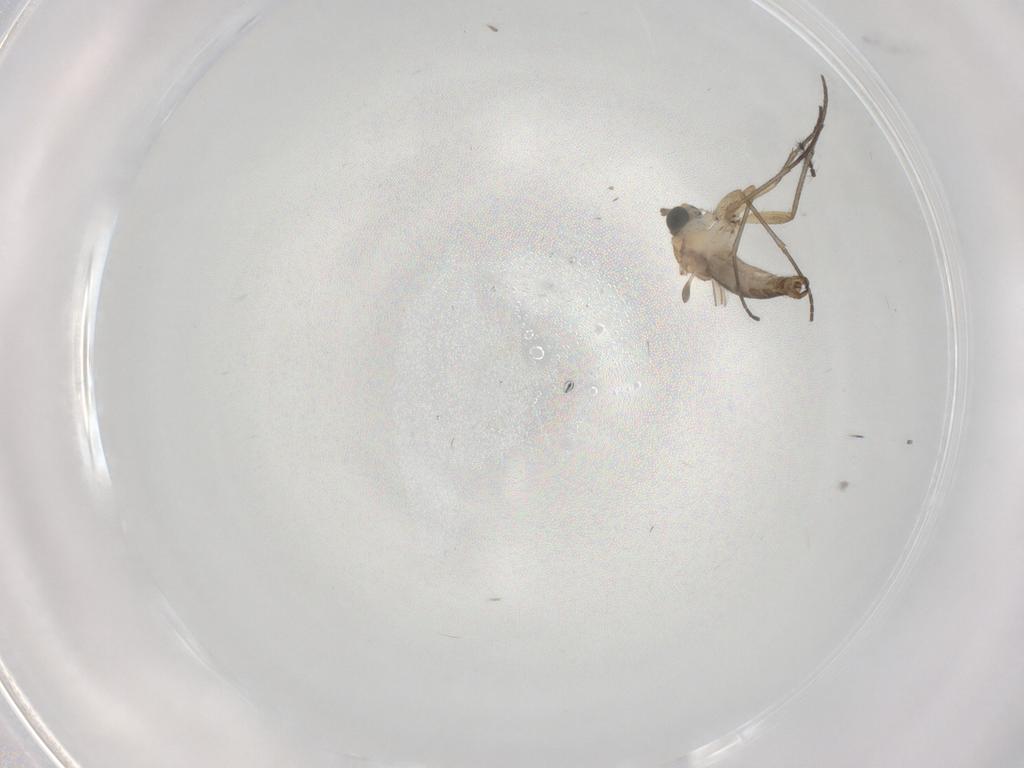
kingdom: Animalia
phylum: Arthropoda
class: Insecta
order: Diptera
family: Sciaridae
